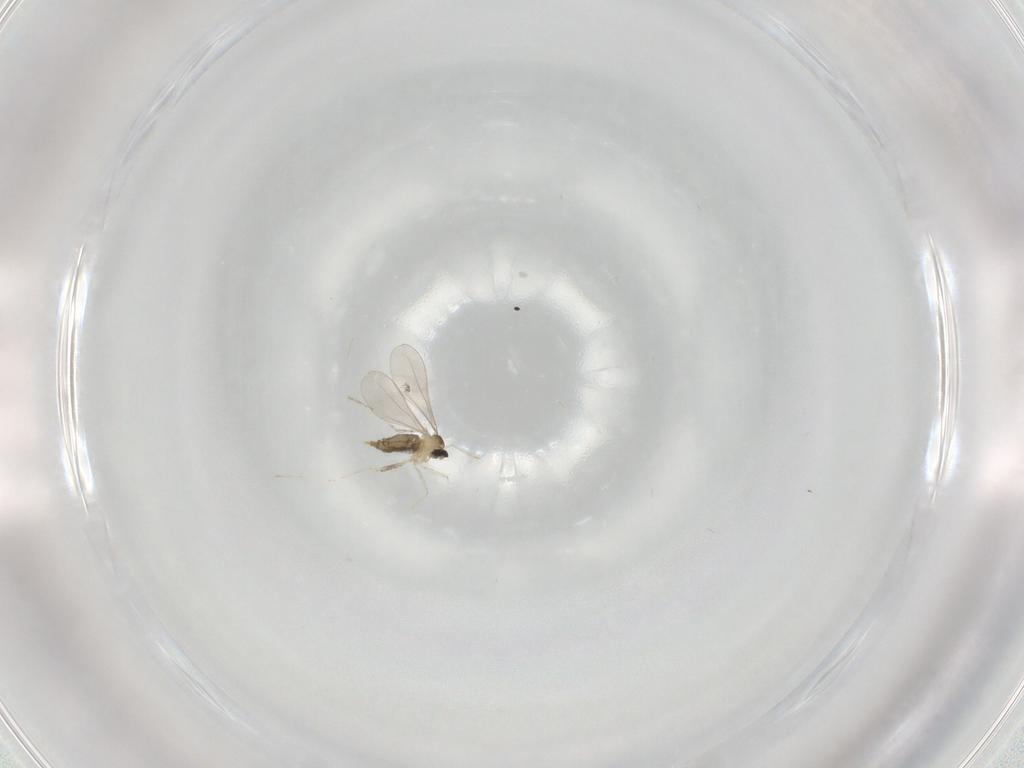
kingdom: Animalia
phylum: Arthropoda
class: Insecta
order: Diptera
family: Cecidomyiidae
